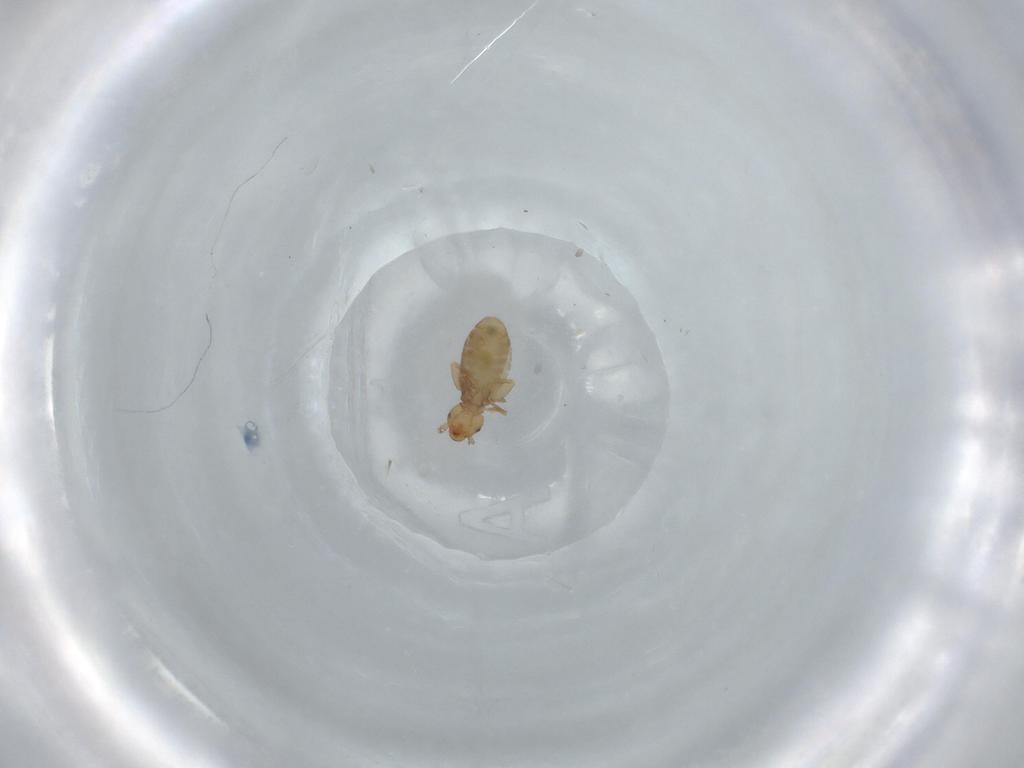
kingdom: Animalia
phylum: Arthropoda
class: Insecta
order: Psocodea
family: Liposcelididae
